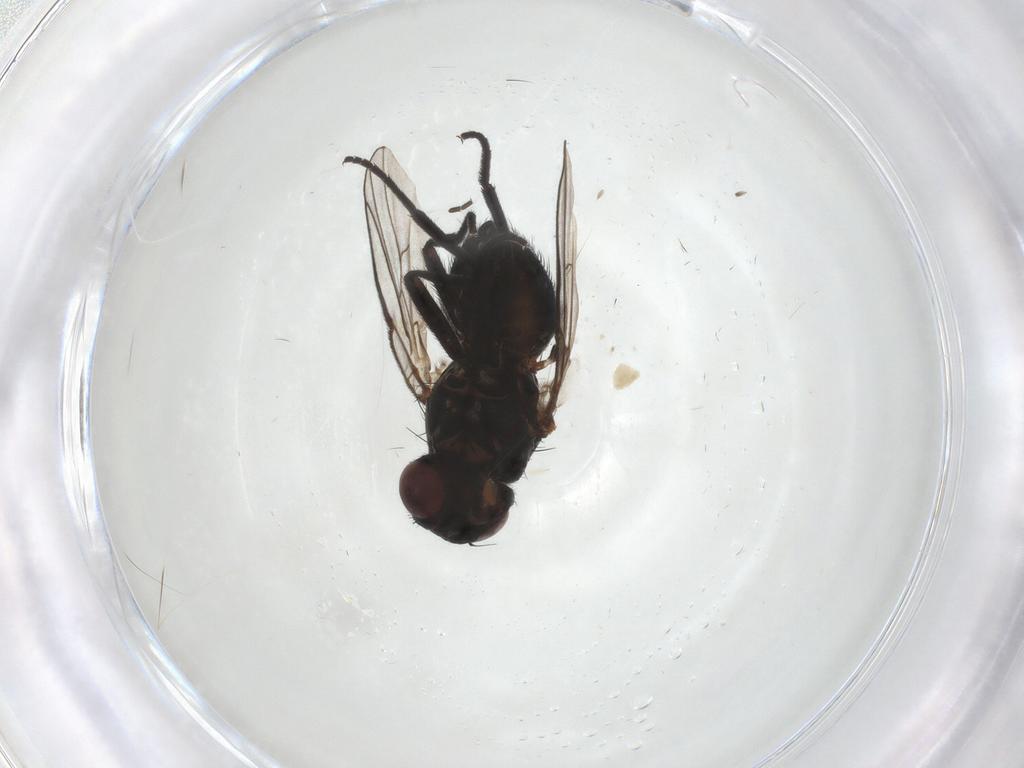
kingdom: Animalia
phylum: Arthropoda
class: Insecta
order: Diptera
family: Agromyzidae
